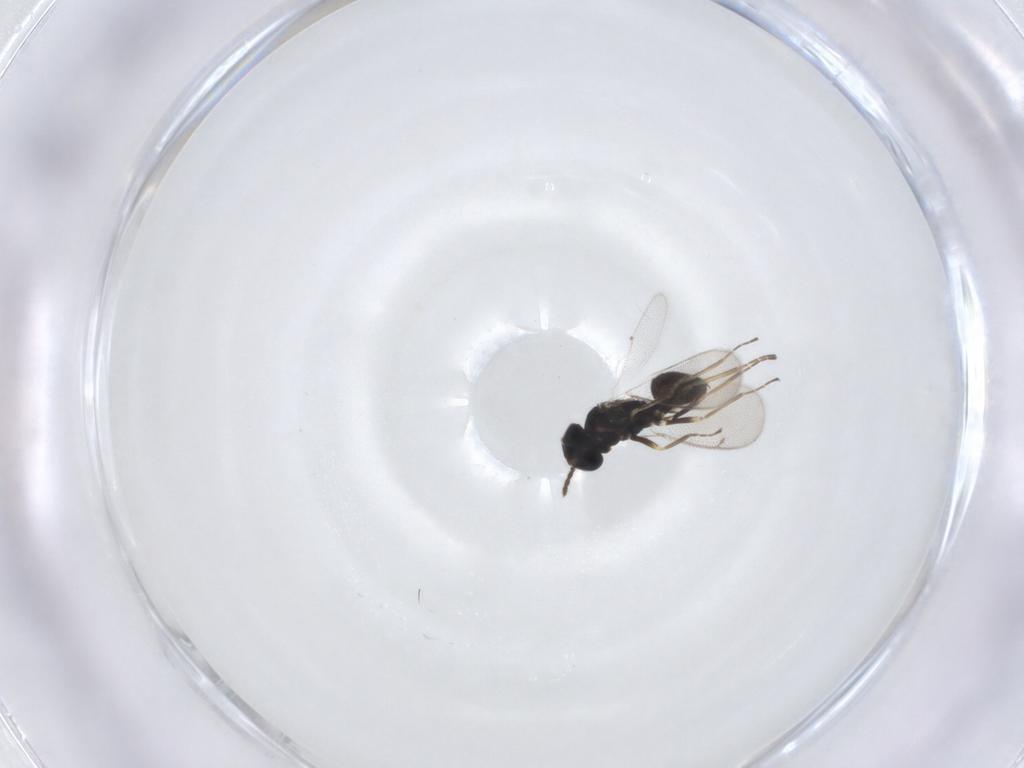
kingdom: Animalia
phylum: Arthropoda
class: Insecta
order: Hymenoptera
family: Eulophidae
